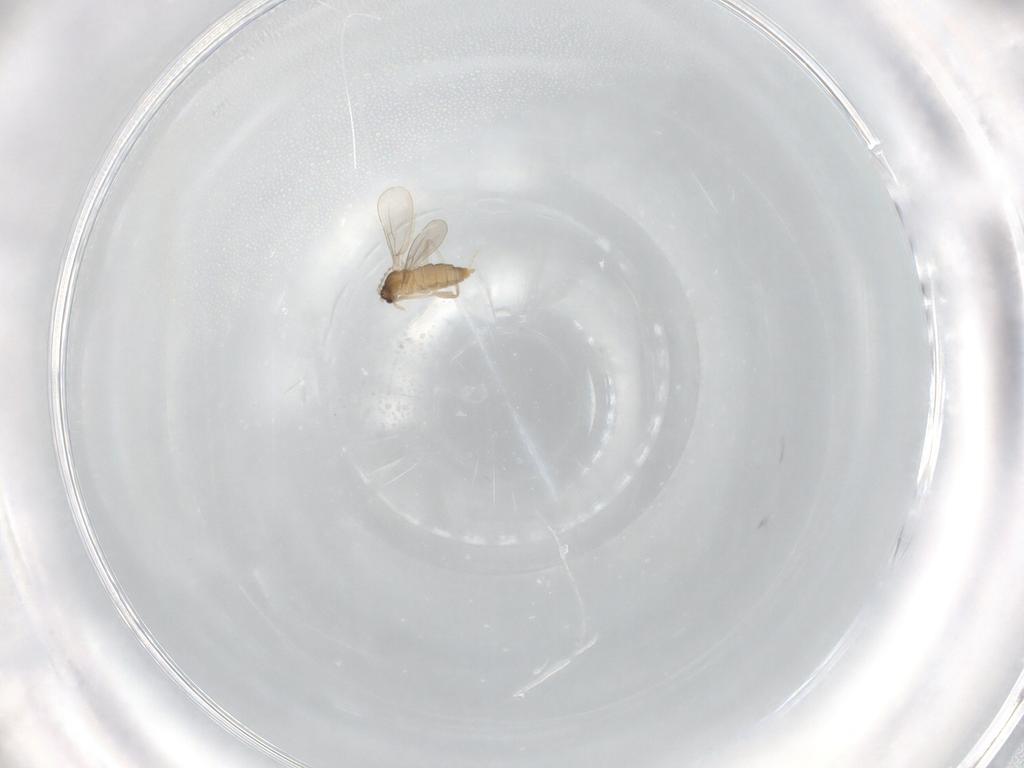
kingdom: Animalia
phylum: Arthropoda
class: Insecta
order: Diptera
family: Cecidomyiidae
